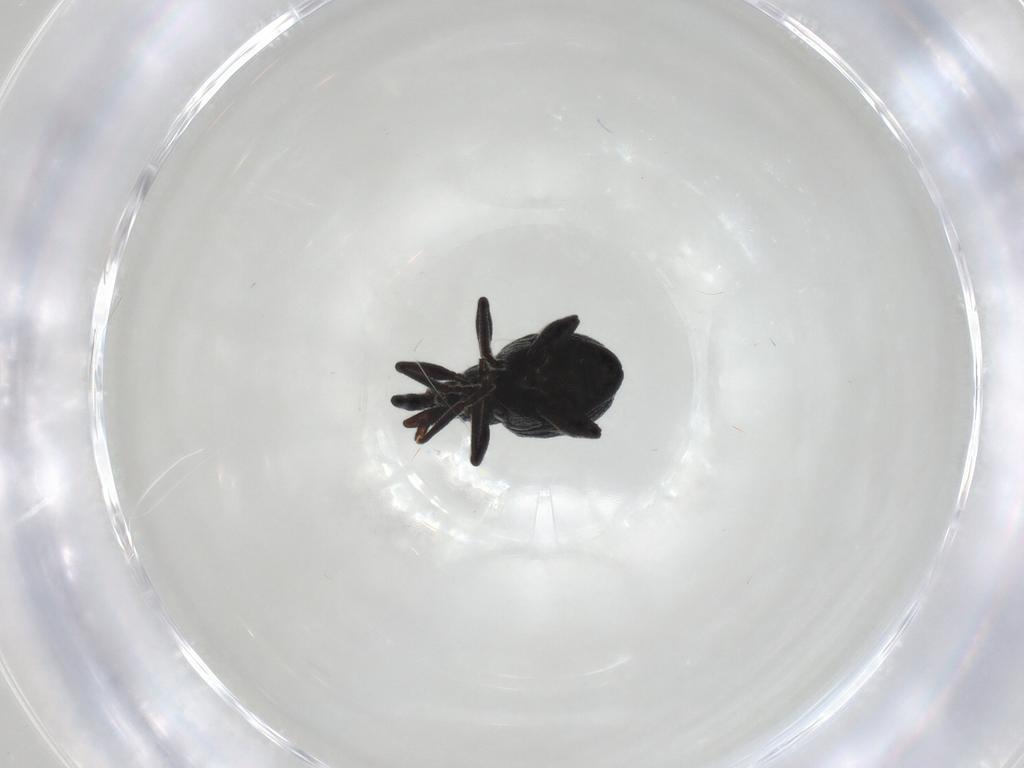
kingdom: Animalia
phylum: Arthropoda
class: Insecta
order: Coleoptera
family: Brentidae
